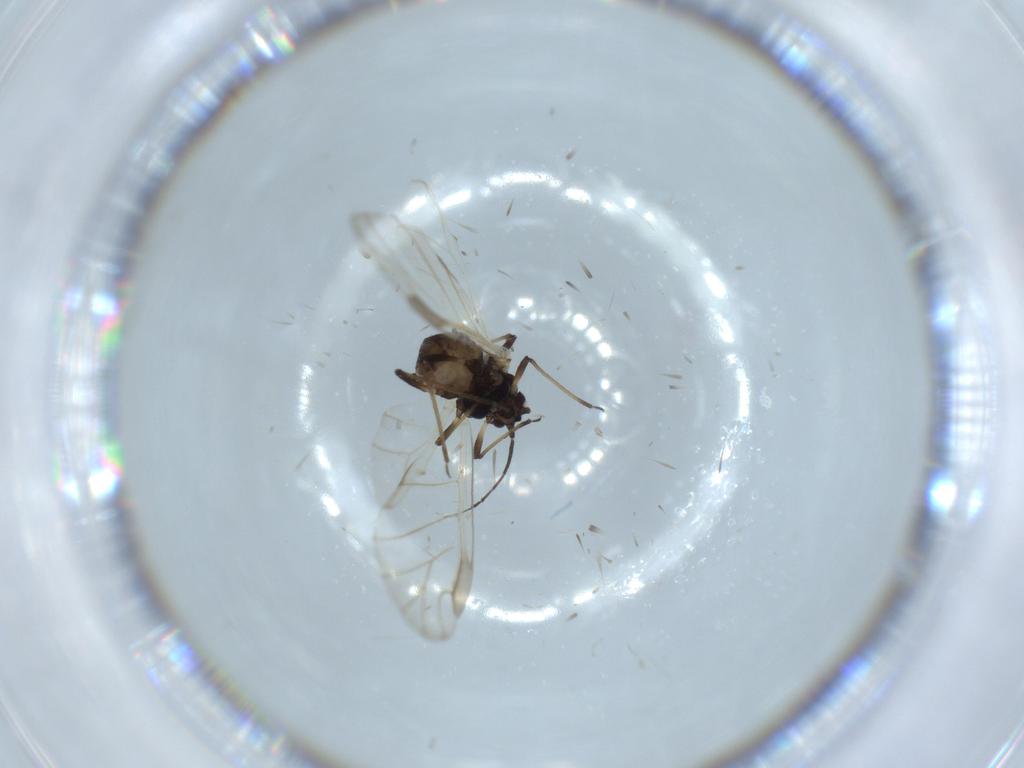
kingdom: Animalia
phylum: Arthropoda
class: Insecta
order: Hemiptera
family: Aphididae
